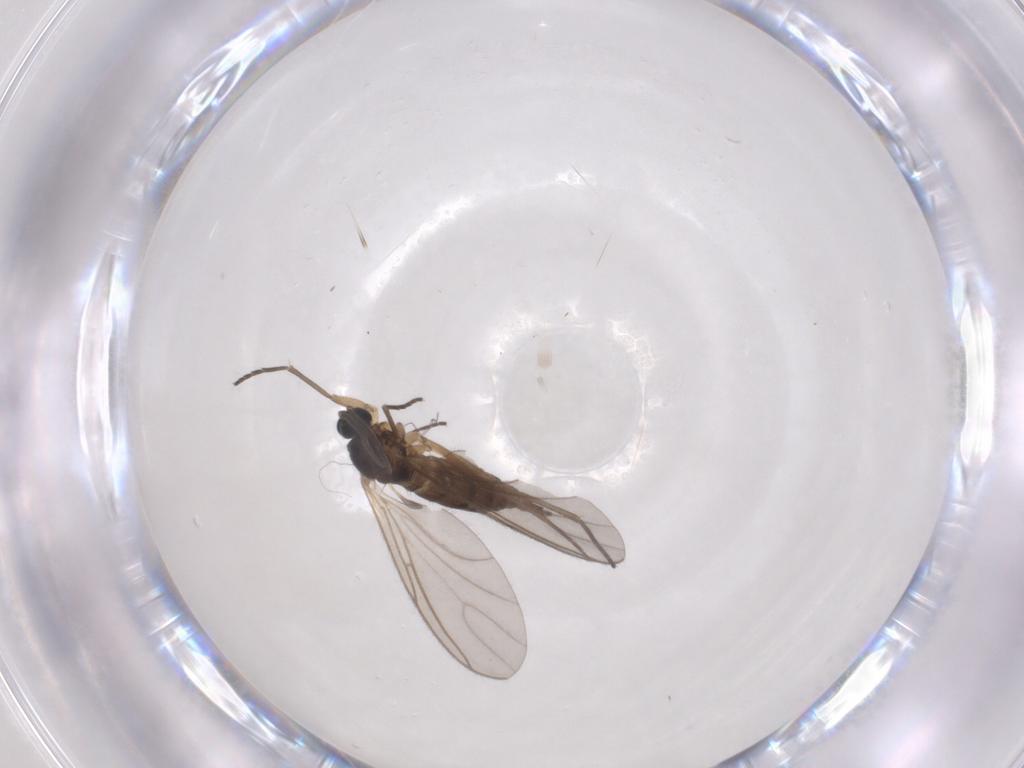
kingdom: Animalia
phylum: Arthropoda
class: Insecta
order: Diptera
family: Sciaridae
